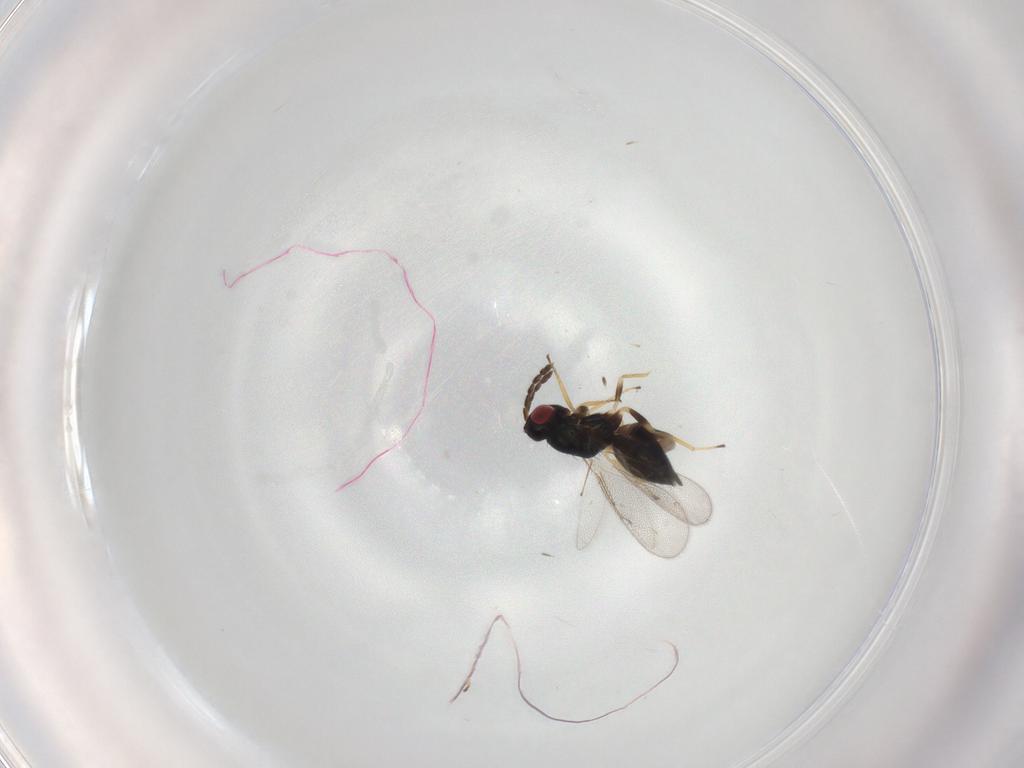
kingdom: Animalia
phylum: Arthropoda
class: Insecta
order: Hymenoptera
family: Eulophidae
